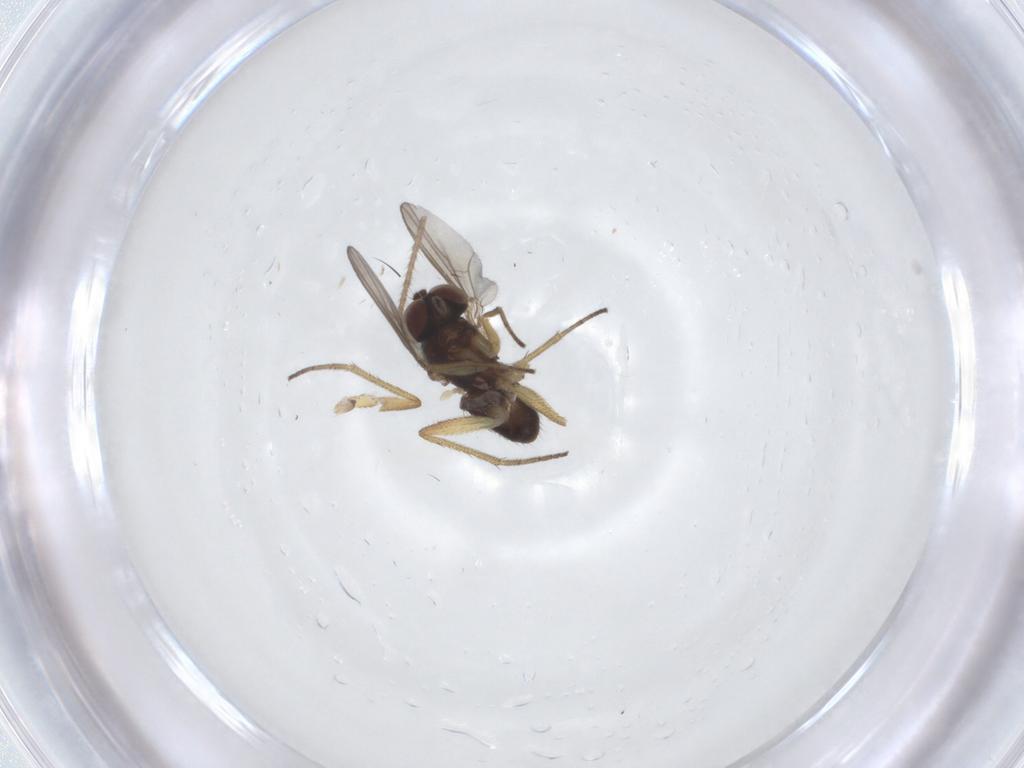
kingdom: Animalia
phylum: Arthropoda
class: Insecta
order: Diptera
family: Dolichopodidae
